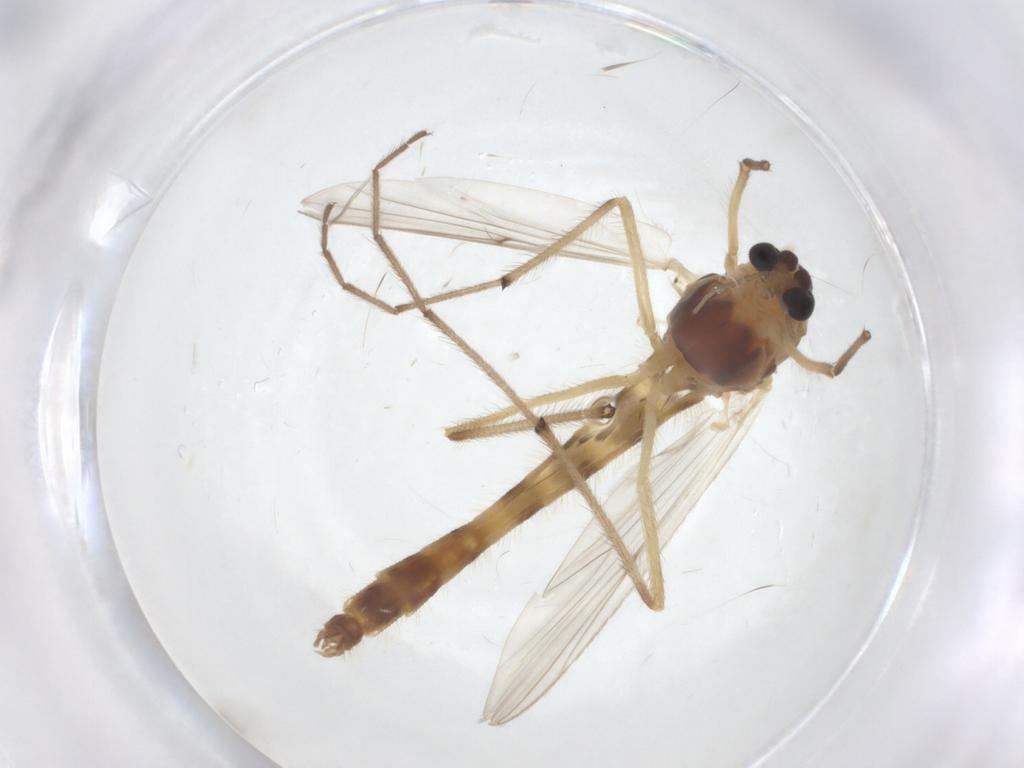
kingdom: Animalia
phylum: Arthropoda
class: Insecta
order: Diptera
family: Cecidomyiidae
